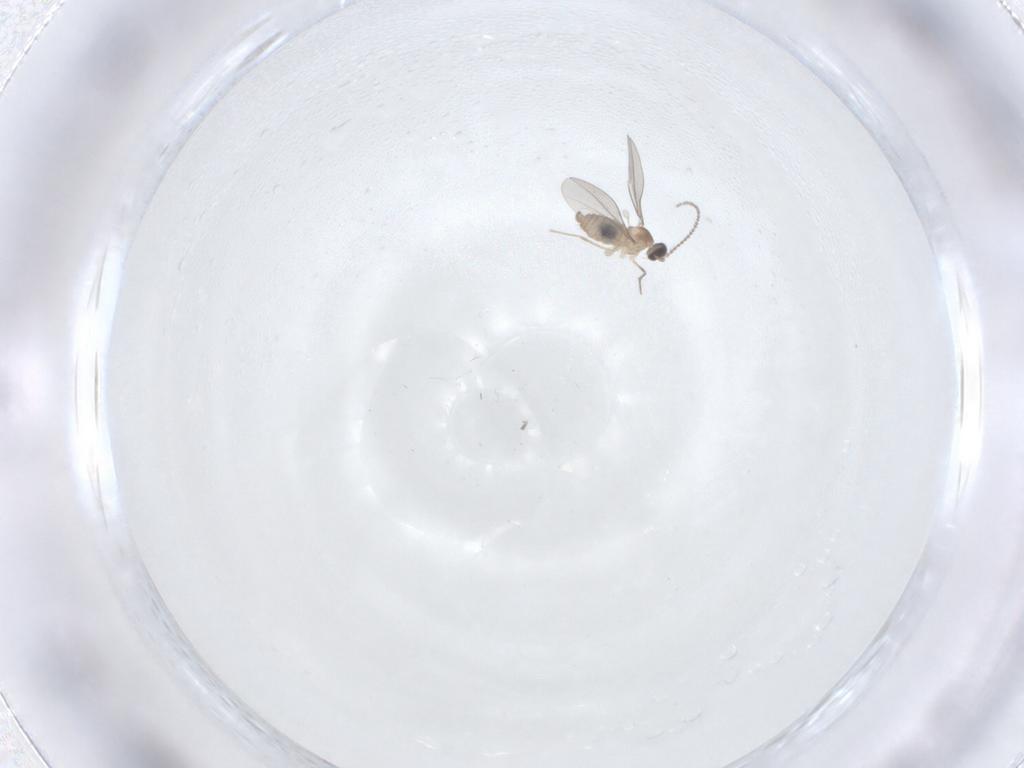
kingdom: Animalia
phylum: Arthropoda
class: Insecta
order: Diptera
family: Cecidomyiidae
